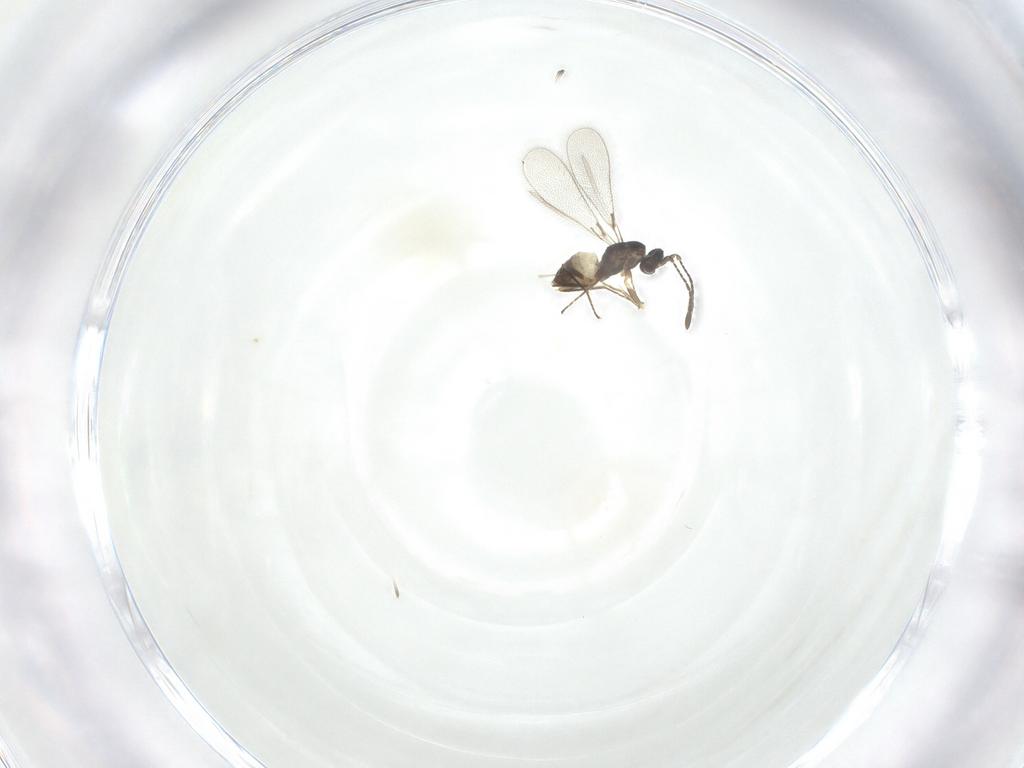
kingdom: Animalia
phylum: Arthropoda
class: Insecta
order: Hymenoptera
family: Mymaridae
